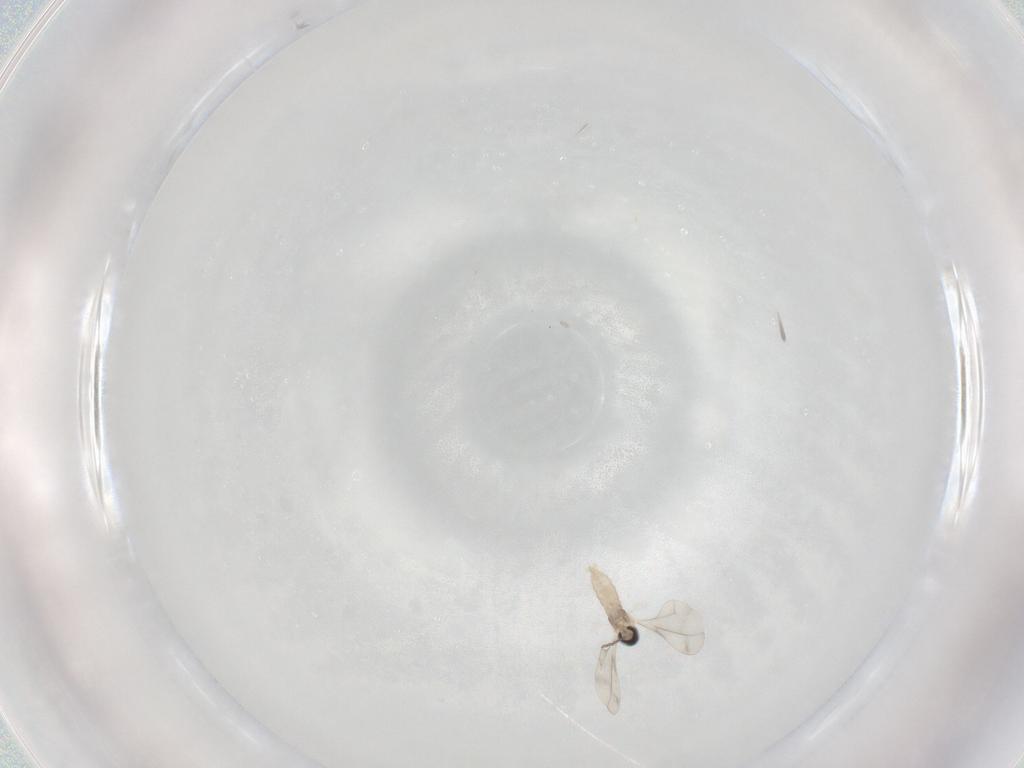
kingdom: Animalia
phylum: Arthropoda
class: Insecta
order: Diptera
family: Cecidomyiidae
